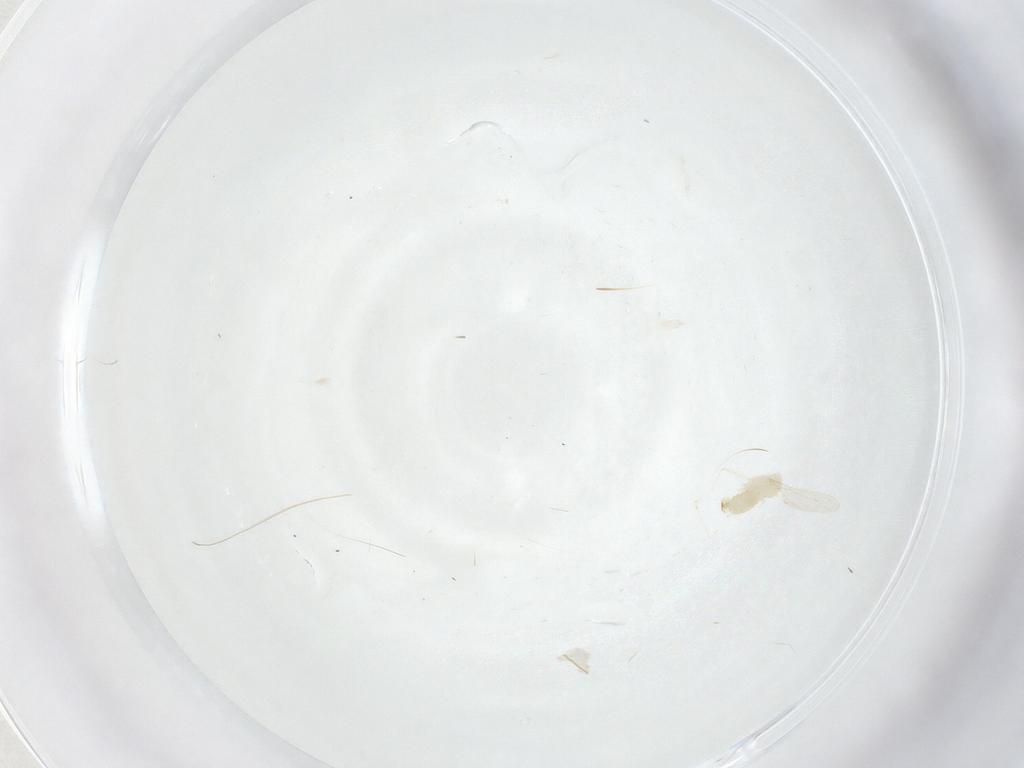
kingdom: Animalia
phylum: Arthropoda
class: Insecta
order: Diptera
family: Cecidomyiidae
